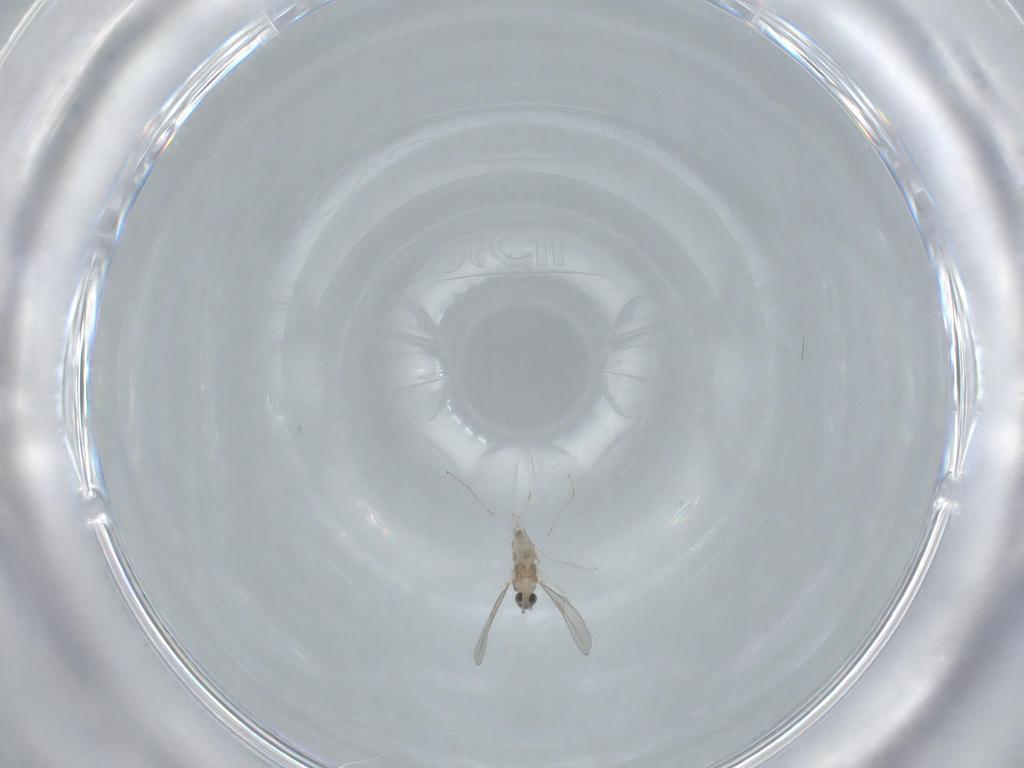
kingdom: Animalia
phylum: Arthropoda
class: Insecta
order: Diptera
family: Cecidomyiidae
